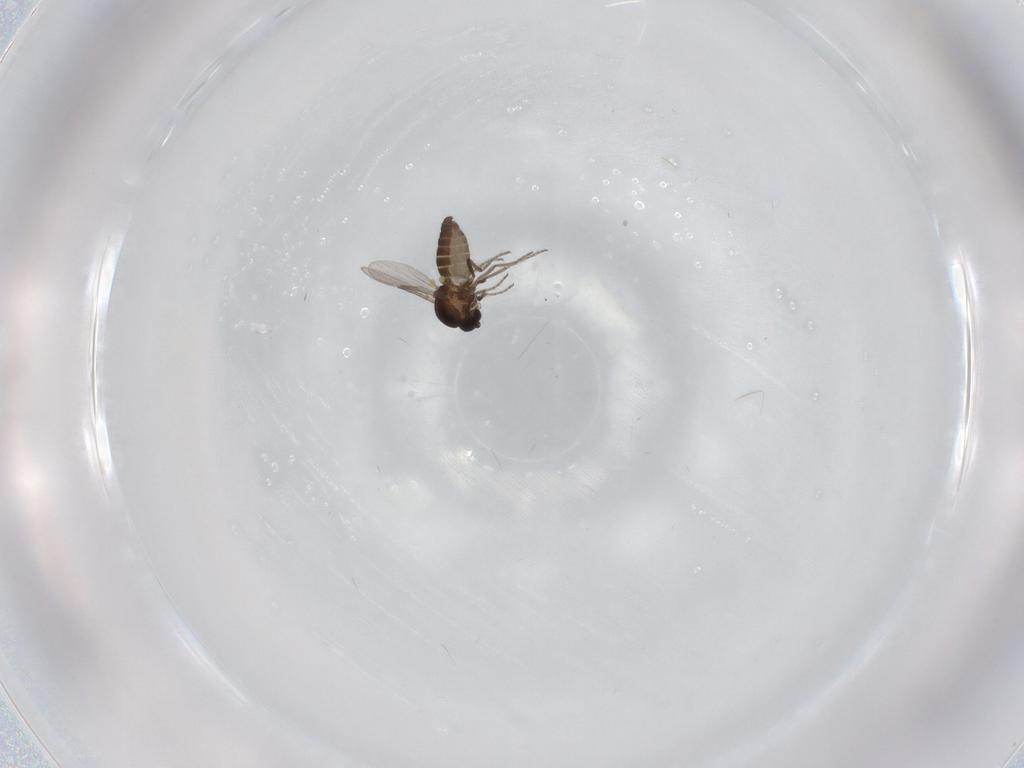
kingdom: Animalia
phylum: Arthropoda
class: Insecta
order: Diptera
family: Ceratopogonidae
